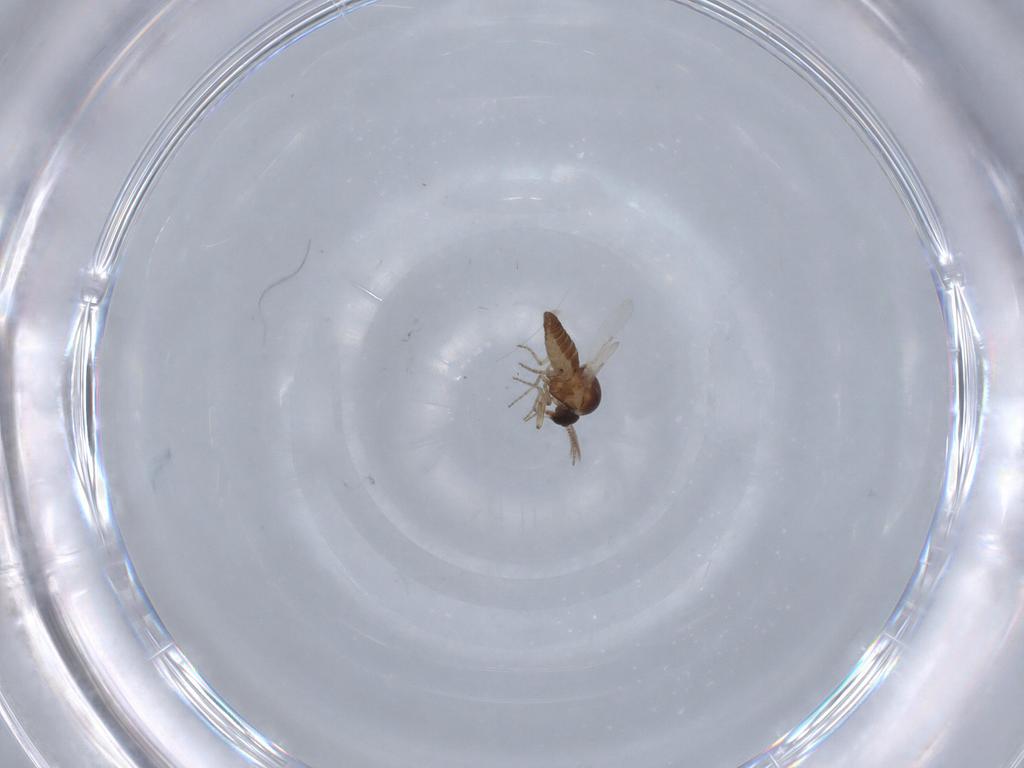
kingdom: Animalia
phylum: Arthropoda
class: Insecta
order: Diptera
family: Ceratopogonidae
